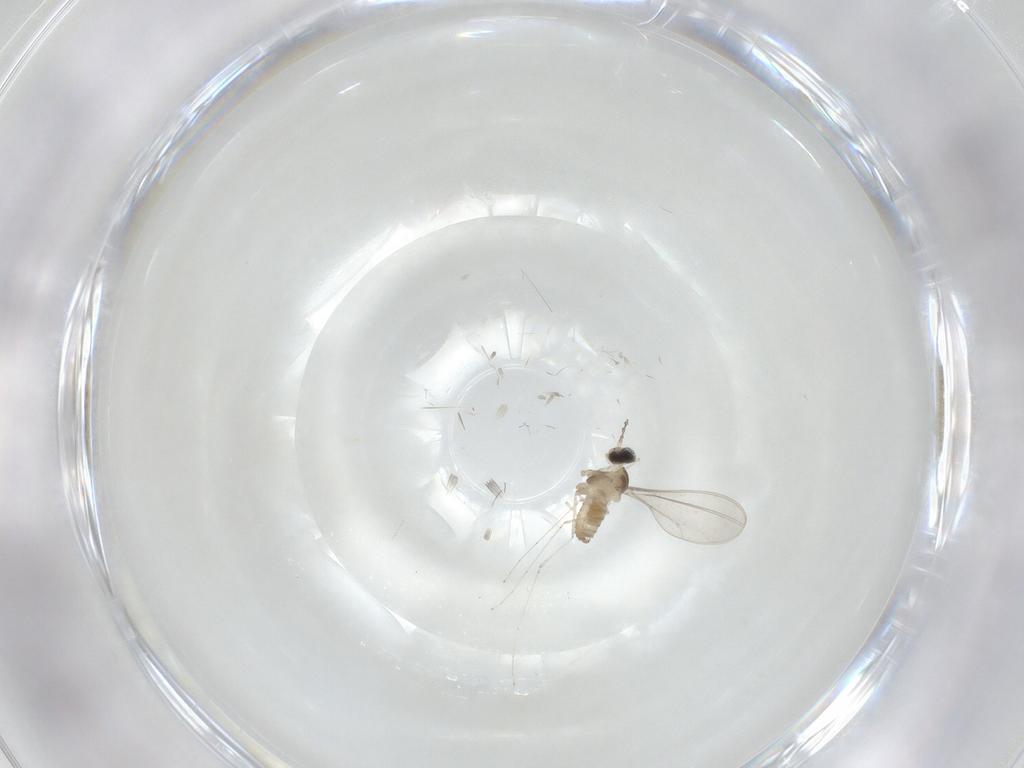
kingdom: Animalia
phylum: Arthropoda
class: Insecta
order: Diptera
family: Cecidomyiidae
